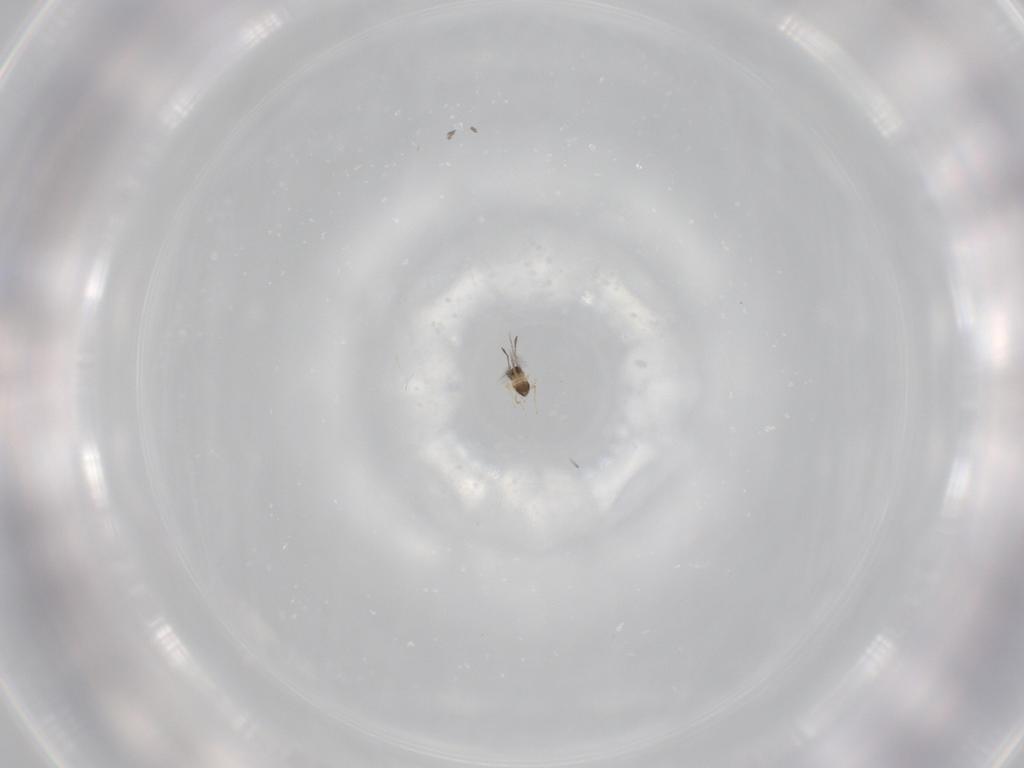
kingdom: Animalia
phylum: Arthropoda
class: Insecta
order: Hymenoptera
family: Mymaridae
